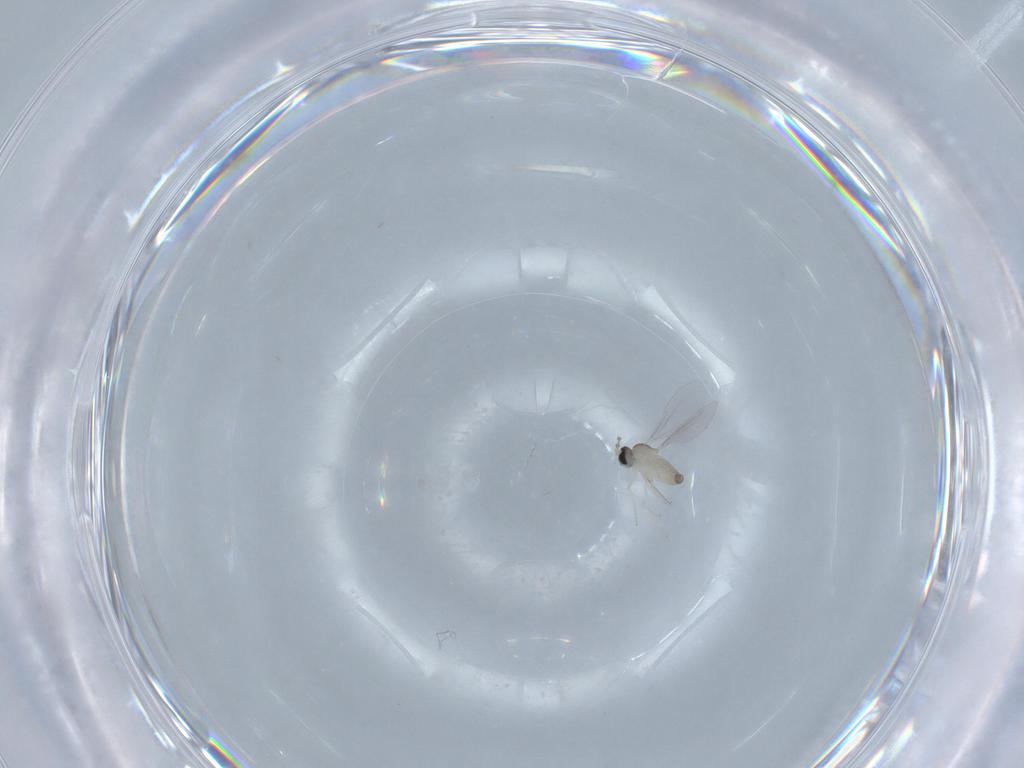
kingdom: Animalia
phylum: Arthropoda
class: Insecta
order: Diptera
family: Cecidomyiidae
